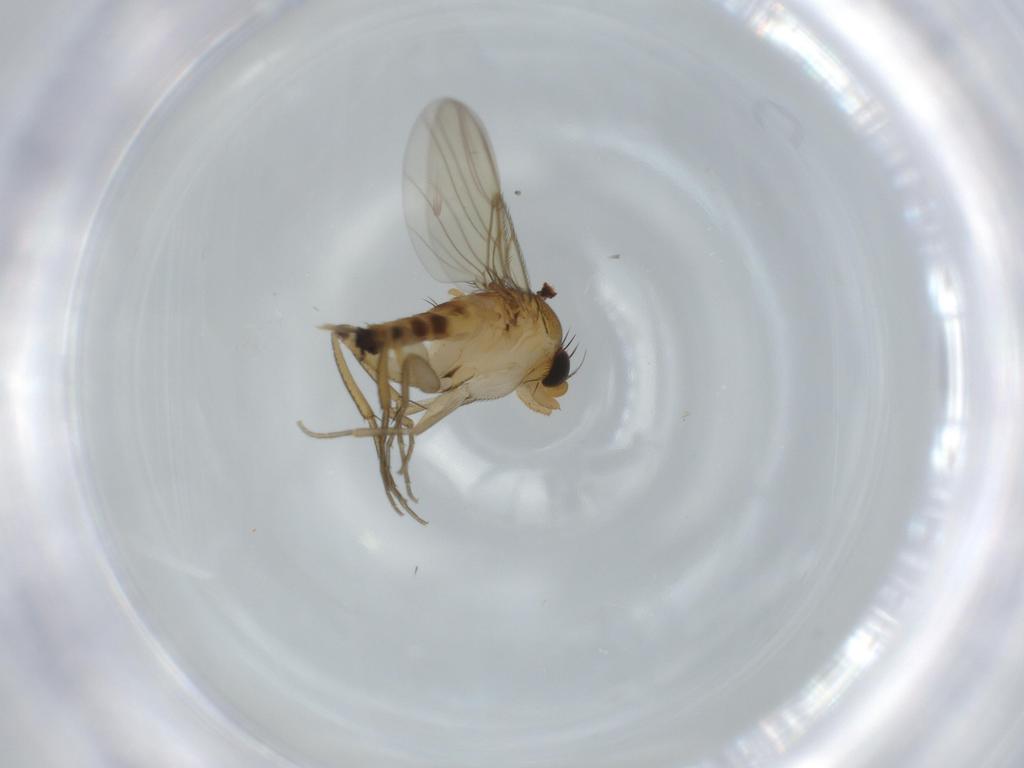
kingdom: Animalia
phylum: Arthropoda
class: Insecta
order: Diptera
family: Phoridae
